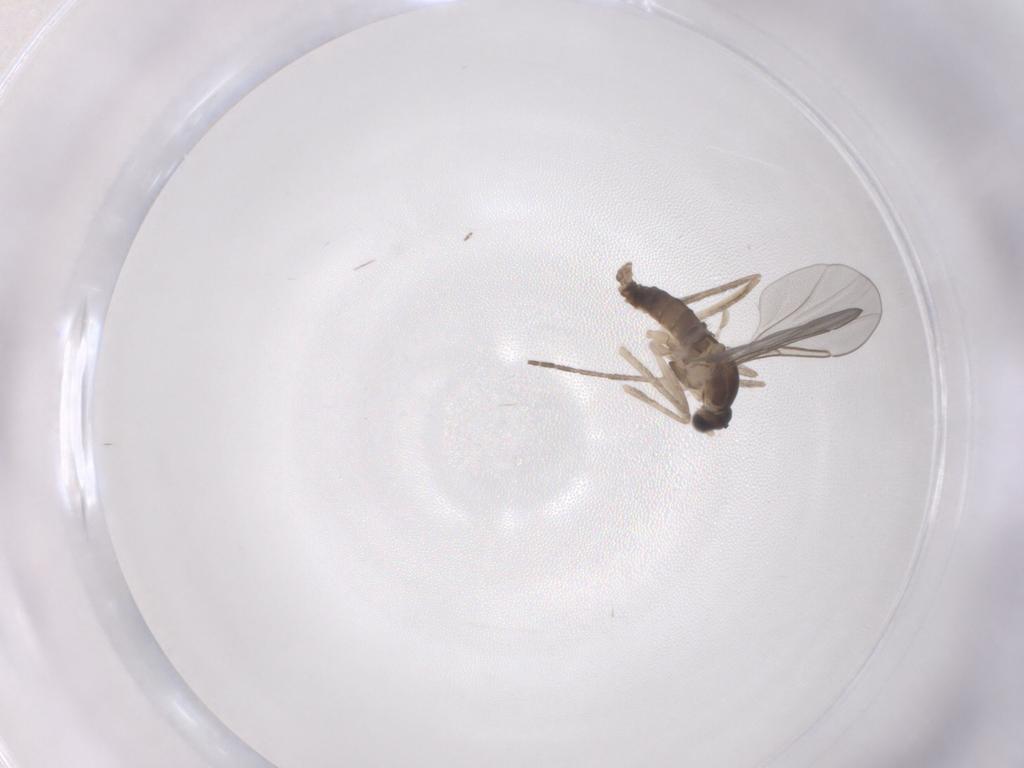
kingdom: Animalia
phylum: Arthropoda
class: Insecta
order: Diptera
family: Cecidomyiidae
